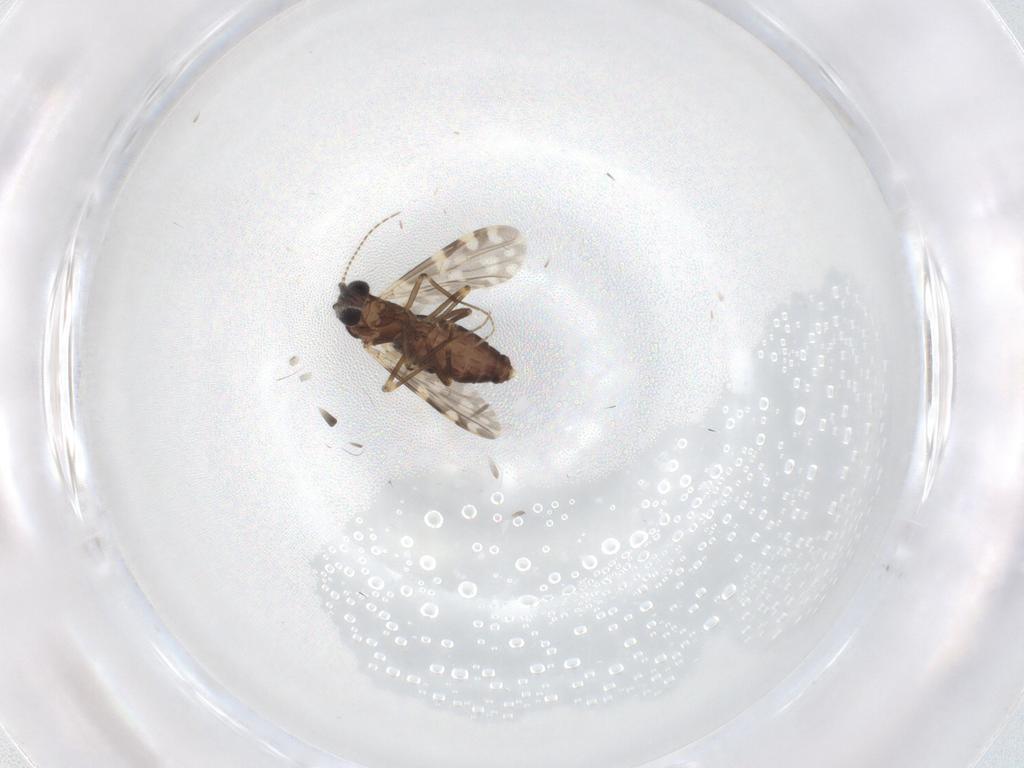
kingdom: Animalia
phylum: Arthropoda
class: Insecta
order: Diptera
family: Ceratopogonidae
